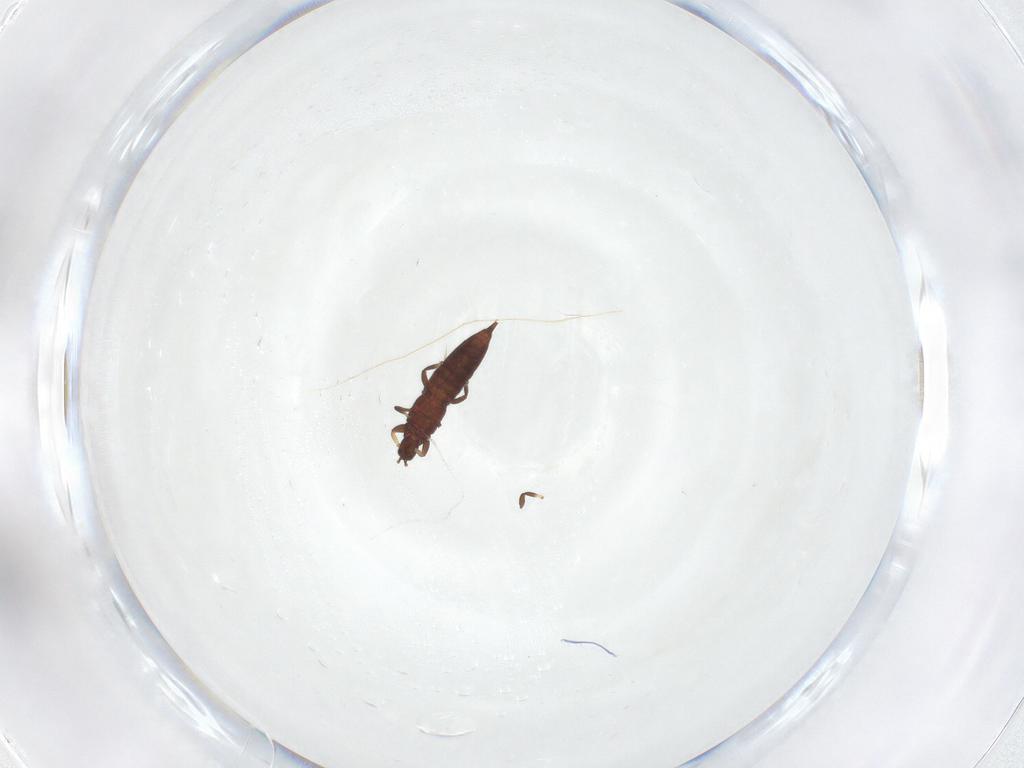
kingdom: Animalia
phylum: Arthropoda
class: Insecta
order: Thysanoptera
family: Phlaeothripidae
